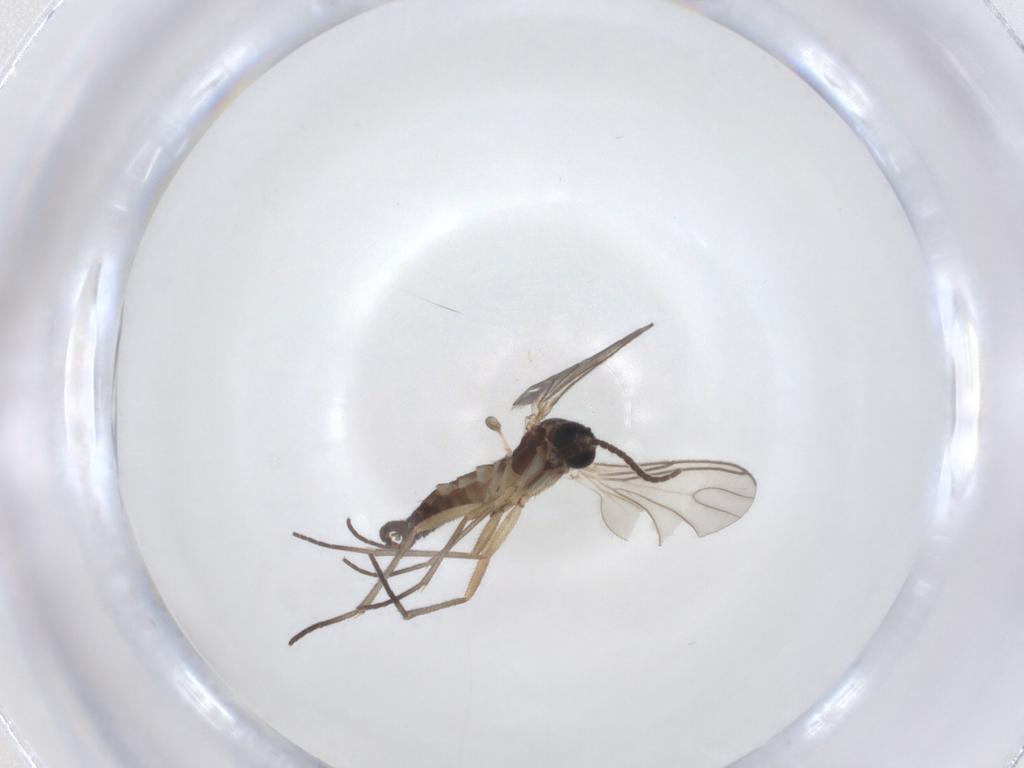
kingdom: Animalia
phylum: Arthropoda
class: Insecta
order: Diptera
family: Sciaridae
